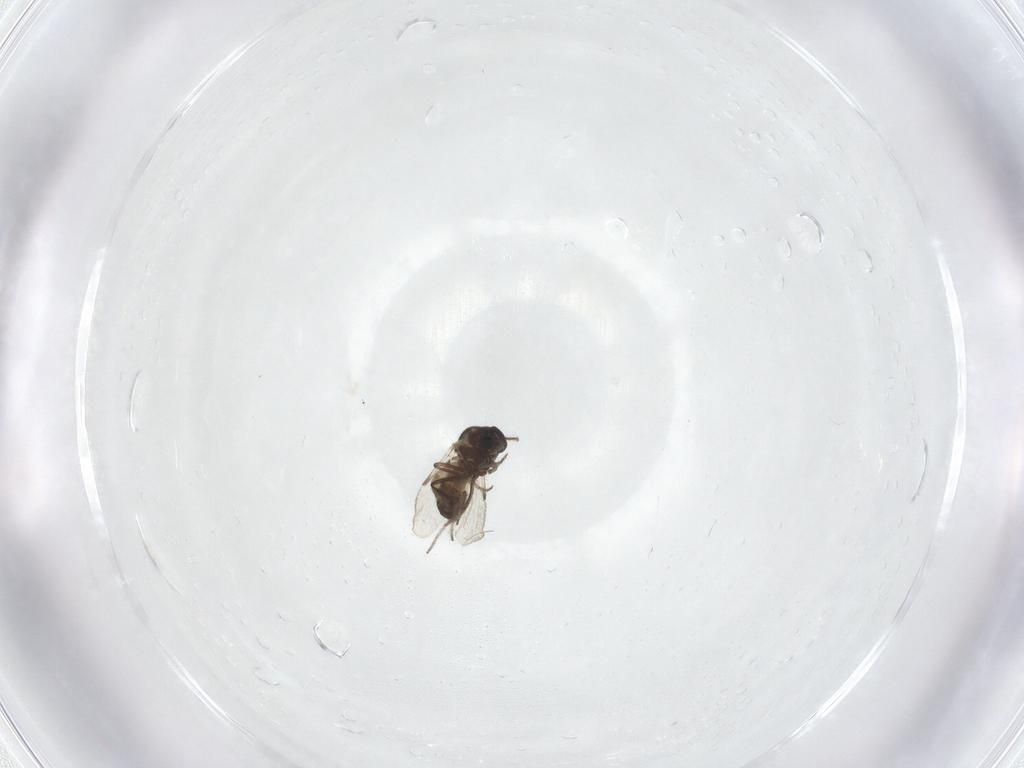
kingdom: Animalia
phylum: Arthropoda
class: Insecta
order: Diptera
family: Ceratopogonidae
